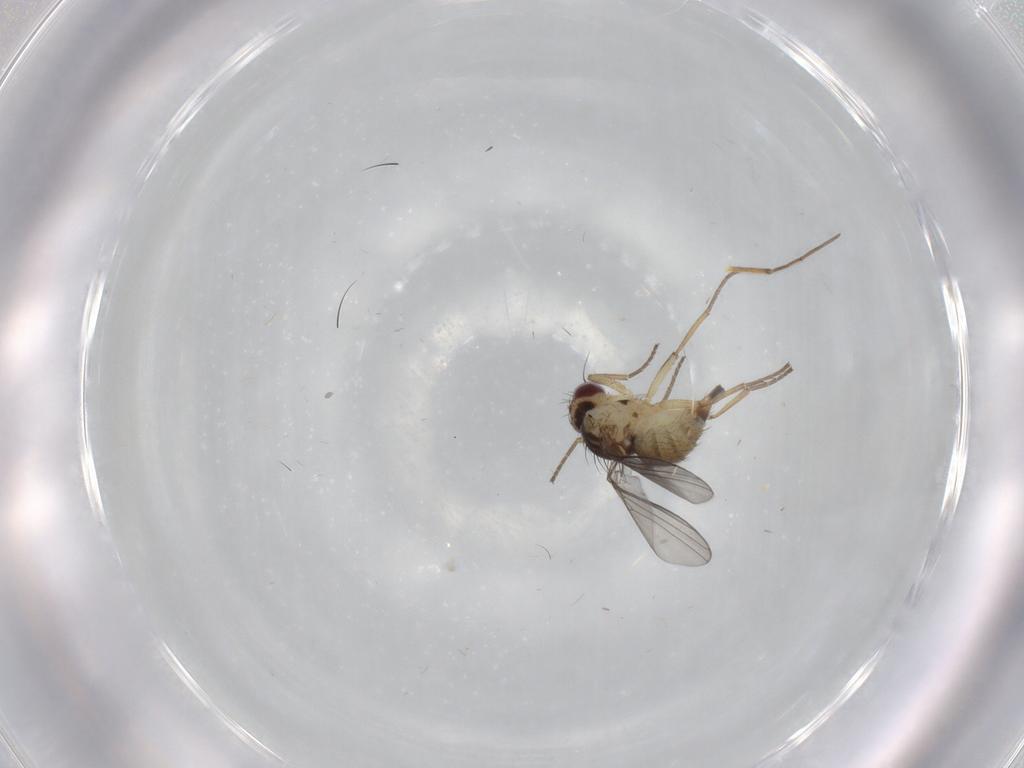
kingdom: Animalia
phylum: Arthropoda
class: Insecta
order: Diptera
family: Agromyzidae
